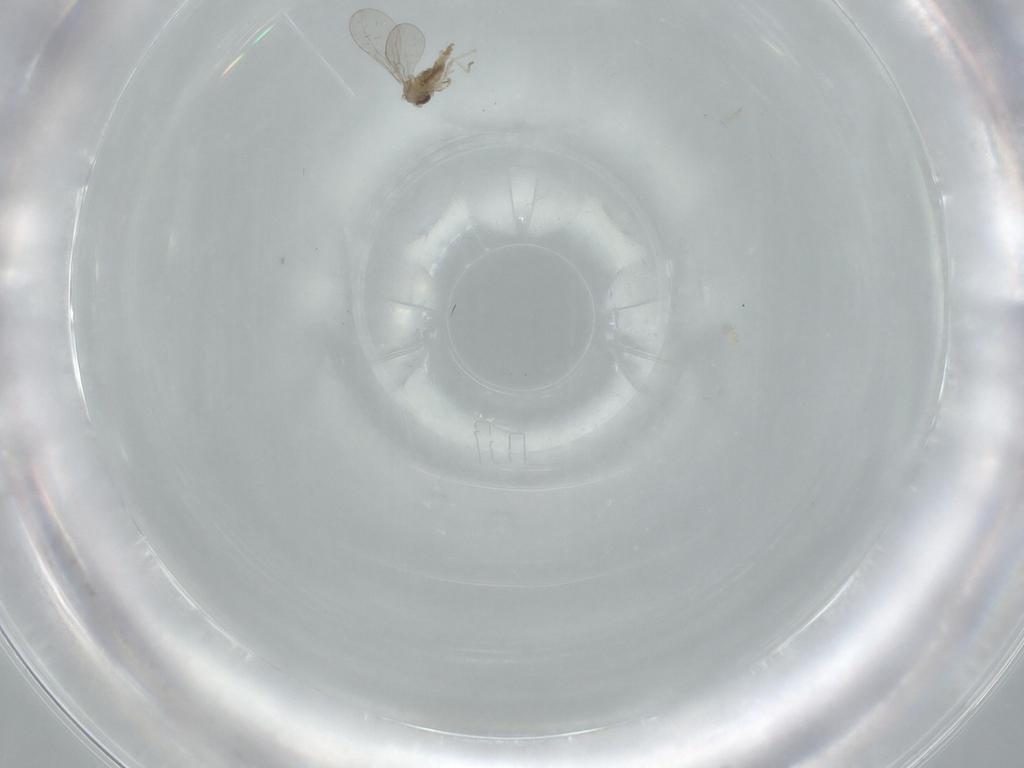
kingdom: Animalia
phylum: Arthropoda
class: Insecta
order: Diptera
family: Cecidomyiidae
